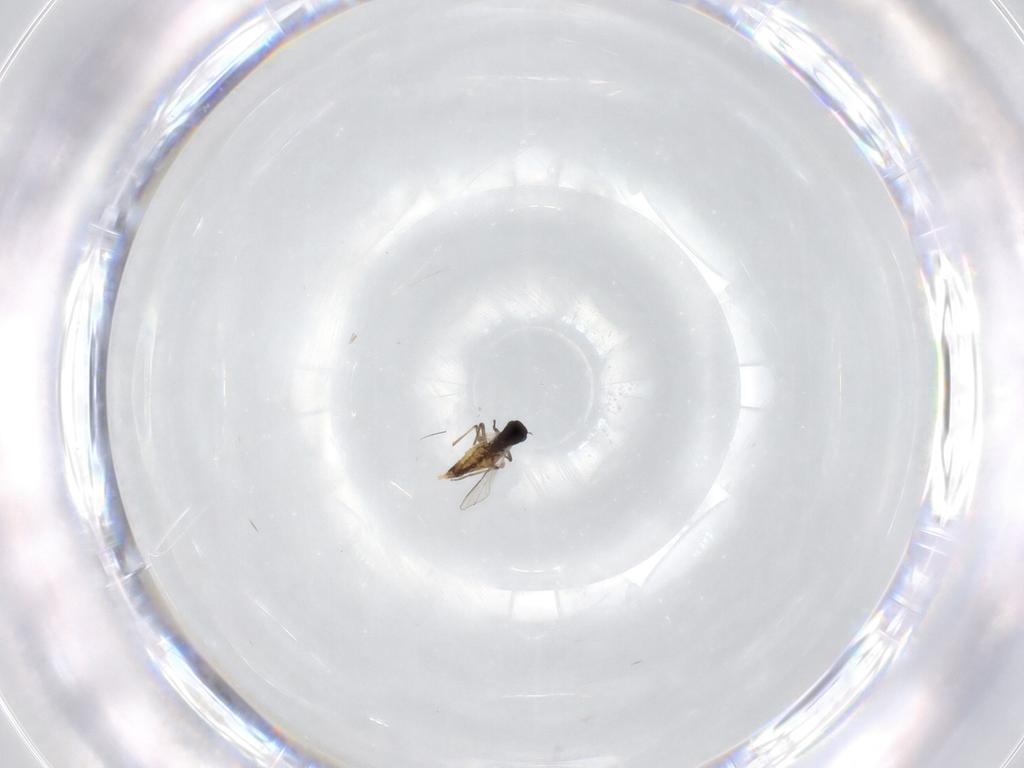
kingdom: Animalia
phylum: Arthropoda
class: Insecta
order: Diptera
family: Chironomidae
